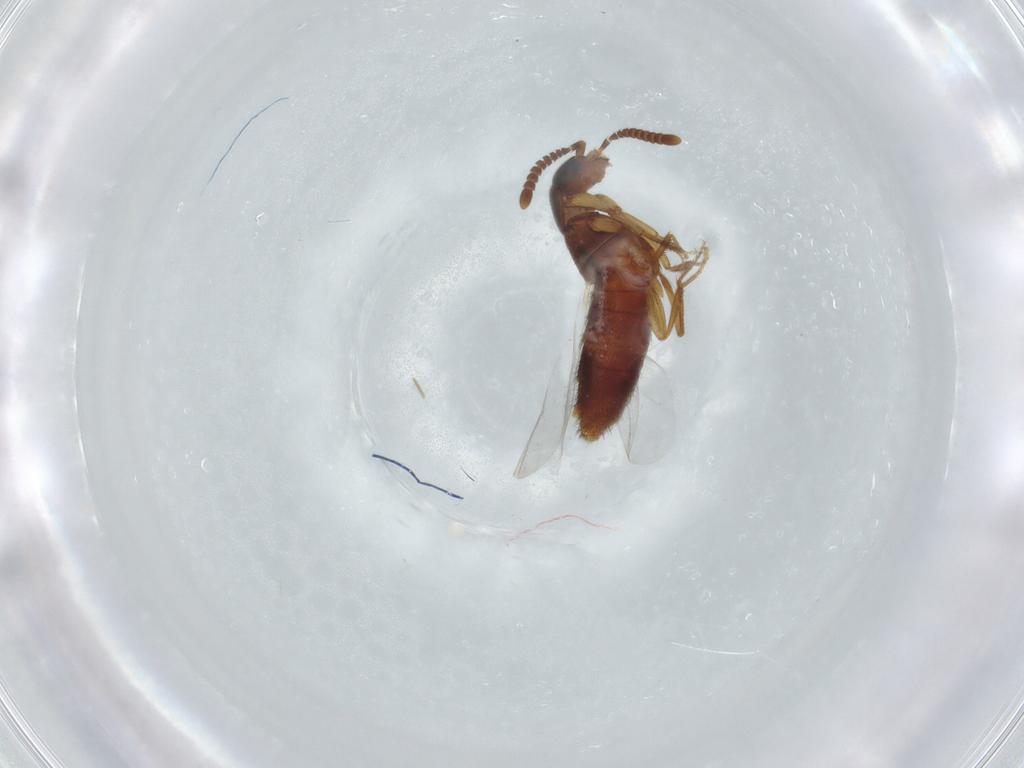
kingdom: Animalia
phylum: Arthropoda
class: Insecta
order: Coleoptera
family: Staphylinidae
